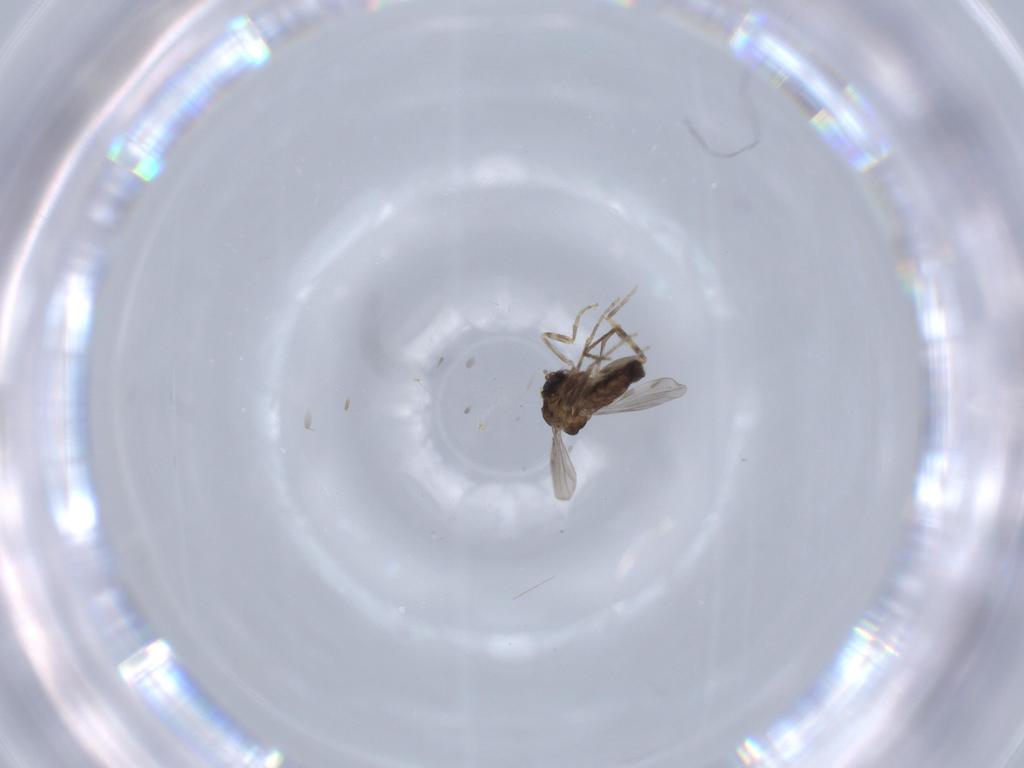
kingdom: Animalia
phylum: Arthropoda
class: Insecta
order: Diptera
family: Ceratopogonidae
